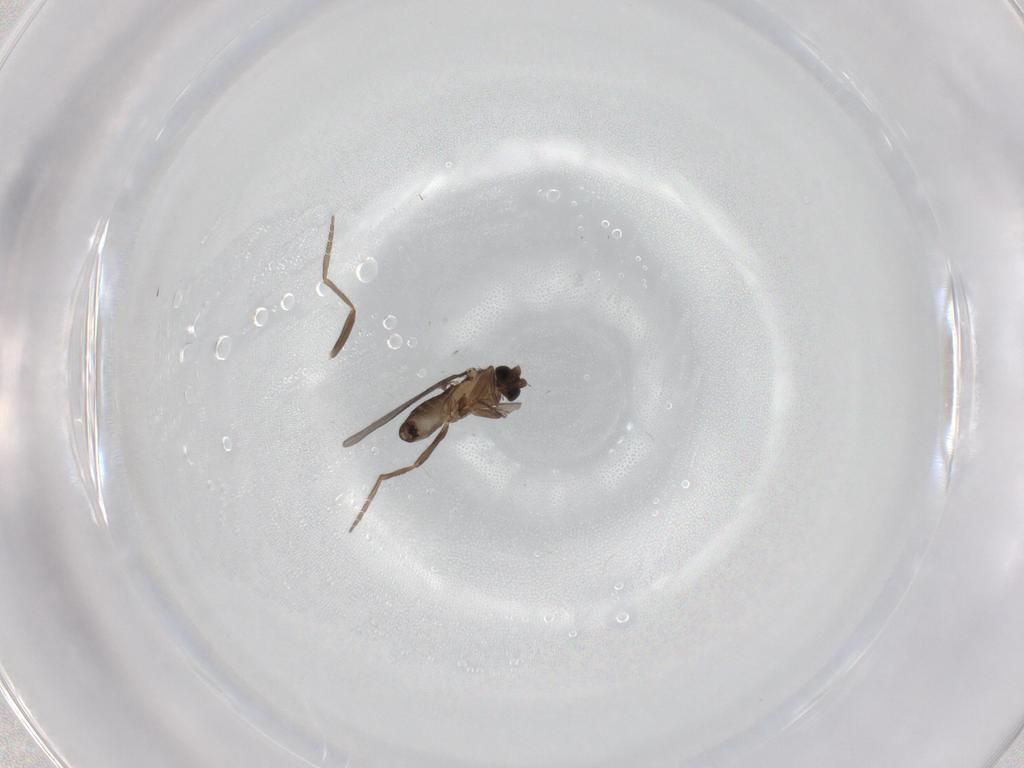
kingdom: Animalia
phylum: Arthropoda
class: Insecta
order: Diptera
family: Phoridae
